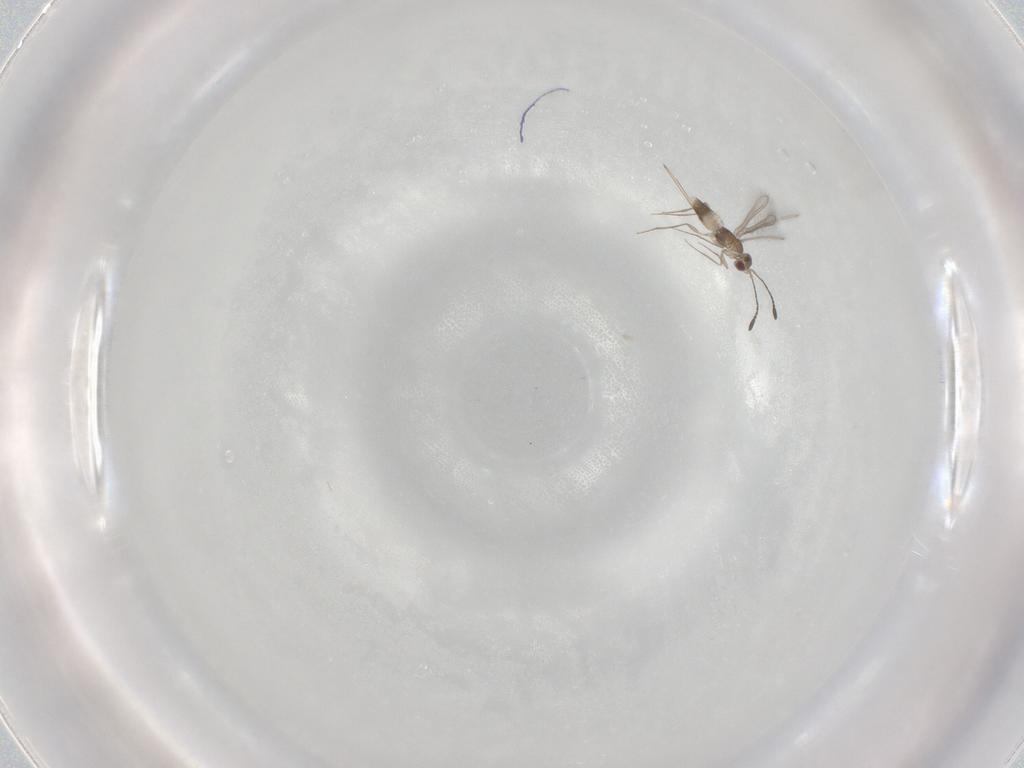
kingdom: Animalia
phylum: Arthropoda
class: Insecta
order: Hymenoptera
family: Mymaridae
